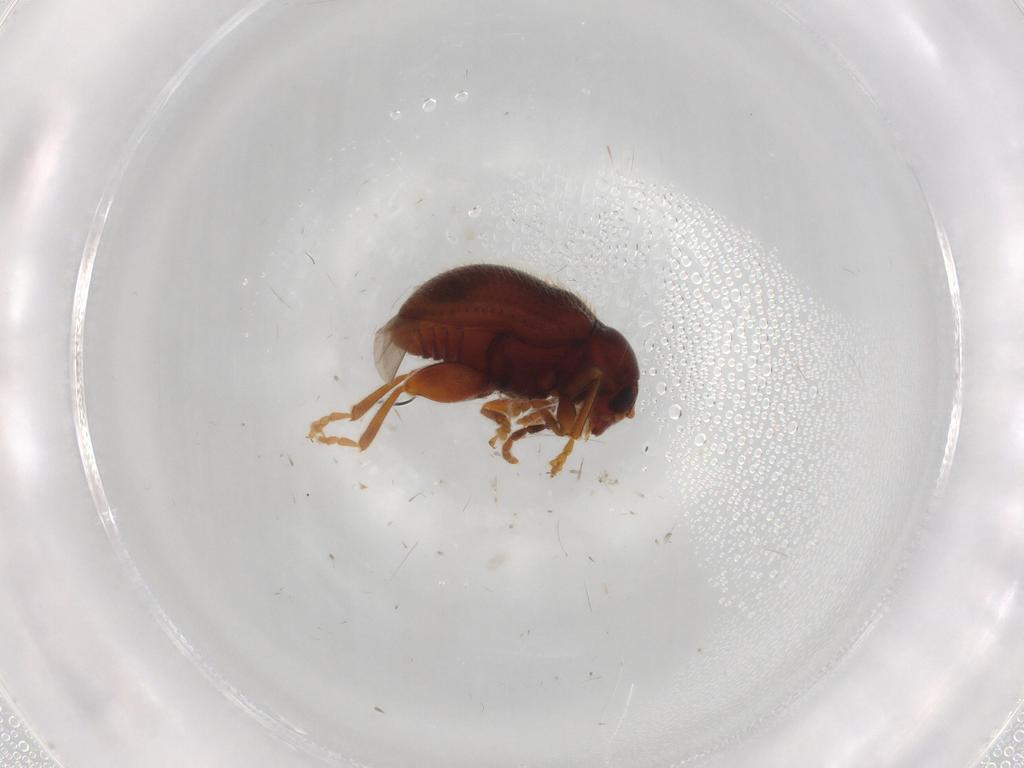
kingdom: Animalia
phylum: Arthropoda
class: Insecta
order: Coleoptera
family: Chrysomelidae
